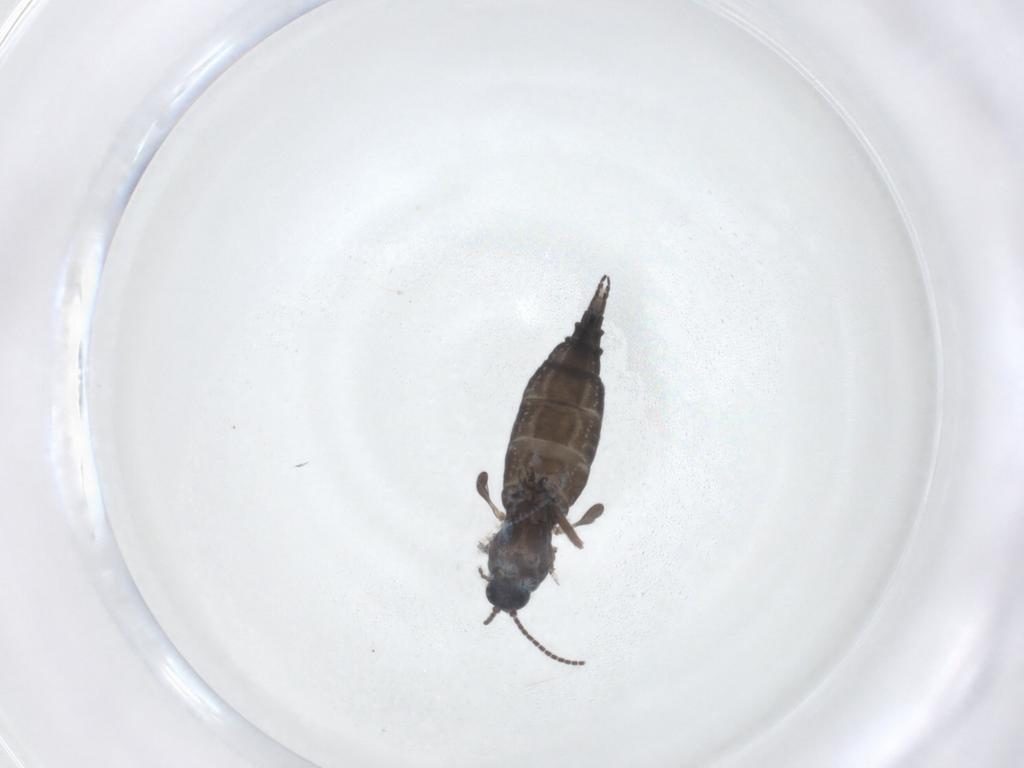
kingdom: Animalia
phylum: Arthropoda
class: Insecta
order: Diptera
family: Sciaridae
